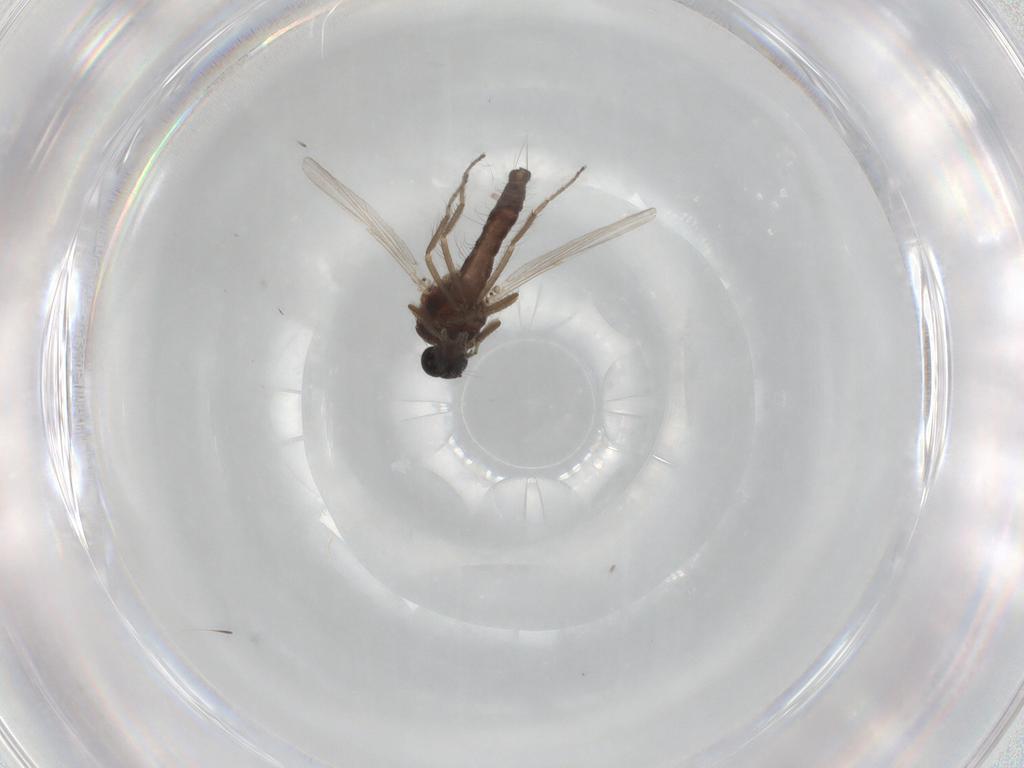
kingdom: Animalia
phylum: Arthropoda
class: Insecta
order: Diptera
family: Ceratopogonidae
